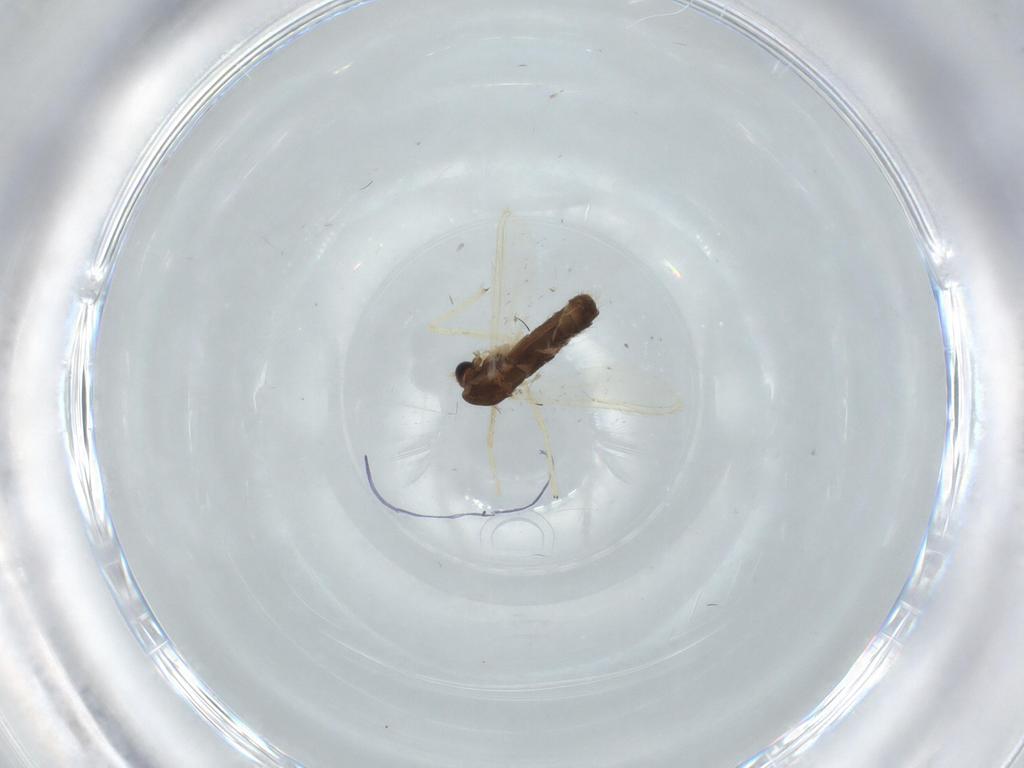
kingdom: Animalia
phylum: Arthropoda
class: Insecta
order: Diptera
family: Chironomidae
